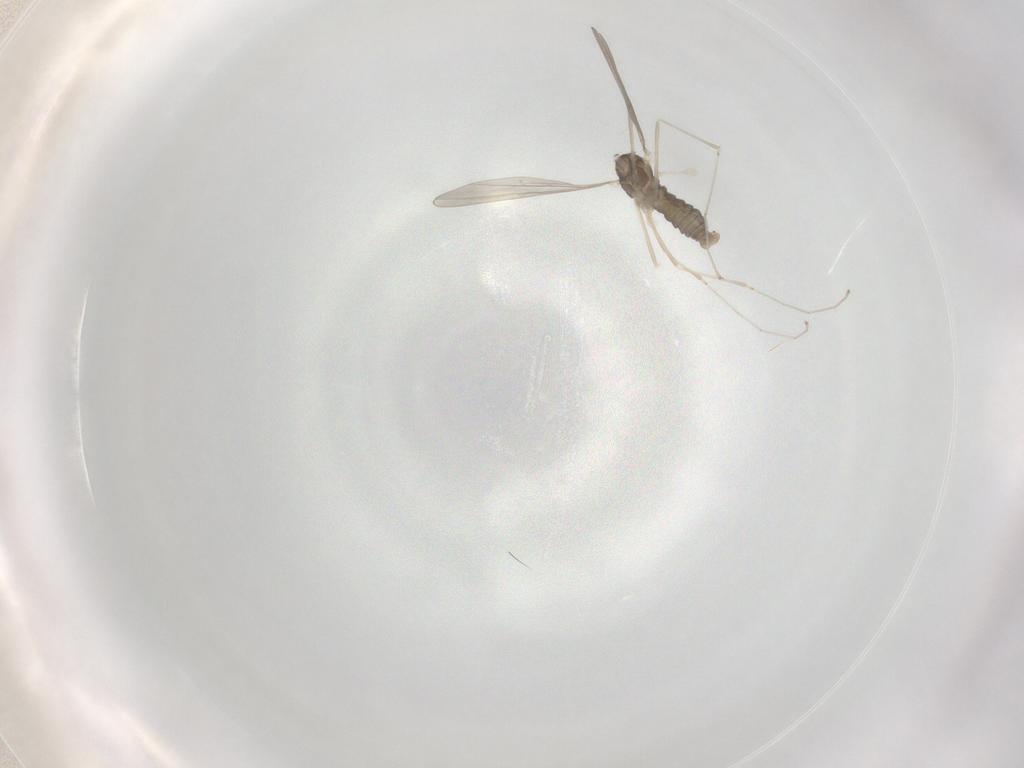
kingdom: Animalia
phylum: Arthropoda
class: Insecta
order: Diptera
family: Cecidomyiidae
